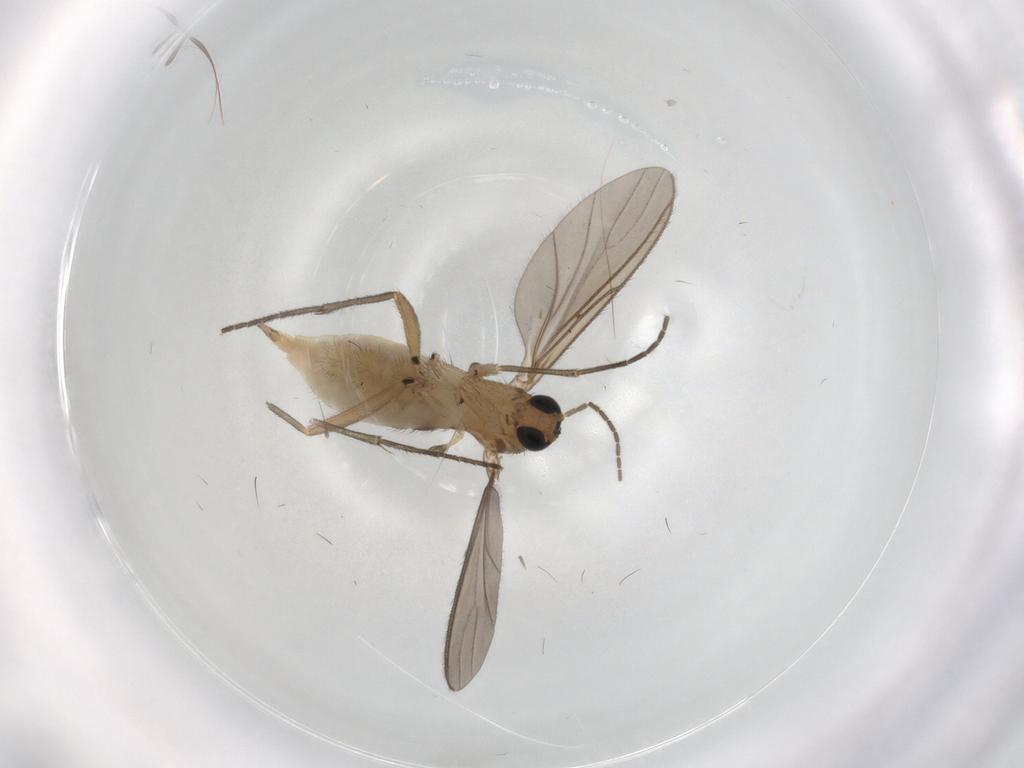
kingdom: Animalia
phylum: Arthropoda
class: Insecta
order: Diptera
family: Sciaridae
